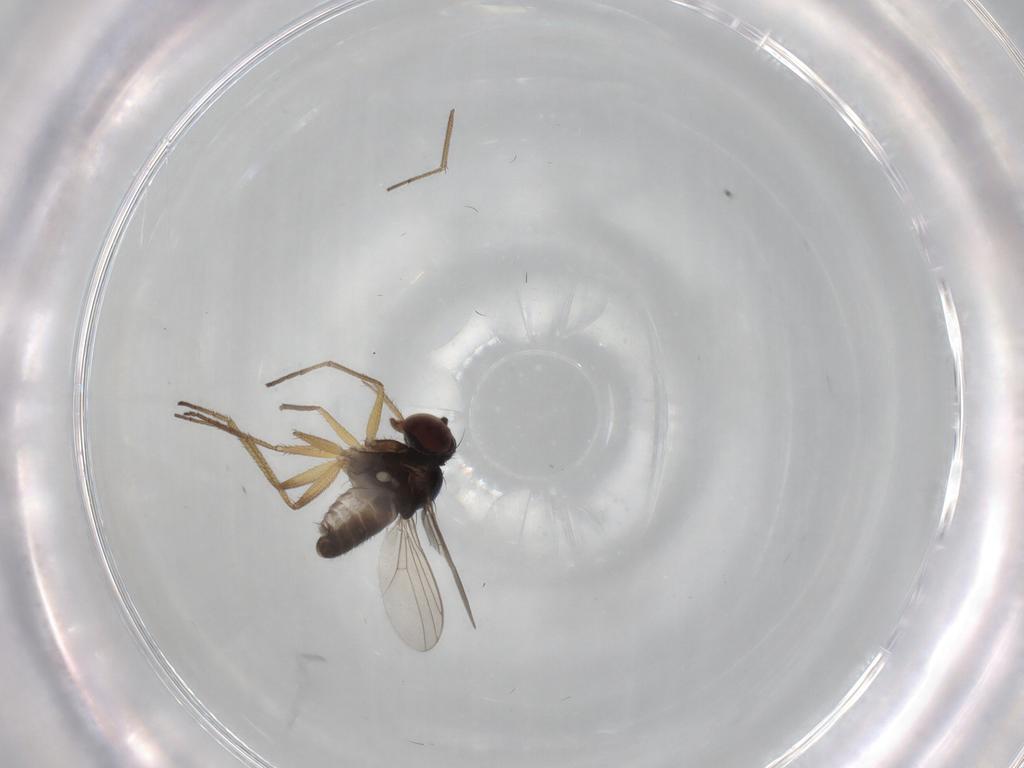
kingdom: Animalia
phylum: Arthropoda
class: Insecta
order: Diptera
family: Dolichopodidae
